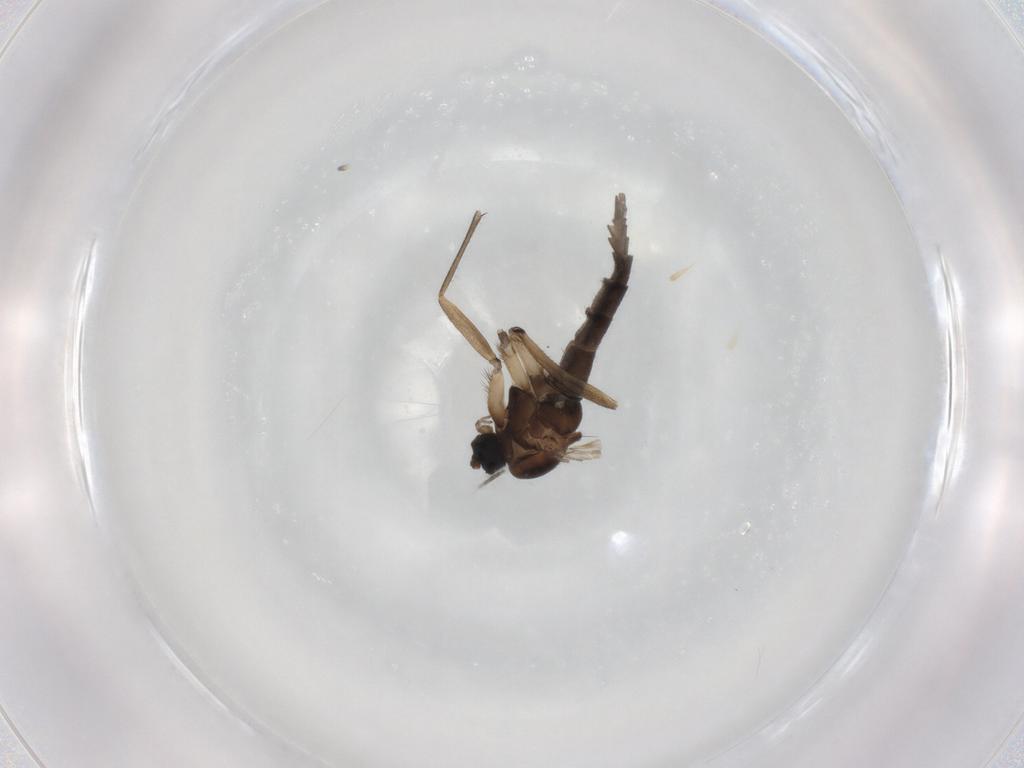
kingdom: Animalia
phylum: Arthropoda
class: Insecta
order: Diptera
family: Sciaridae
